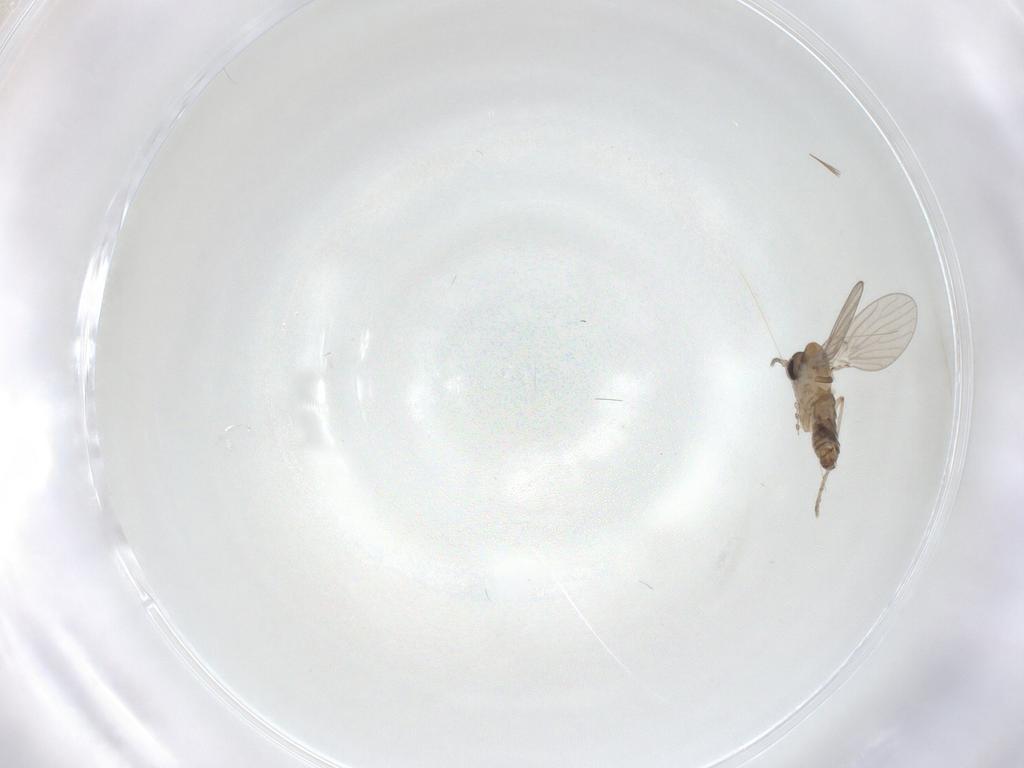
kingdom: Animalia
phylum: Arthropoda
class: Insecta
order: Diptera
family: Psychodidae
